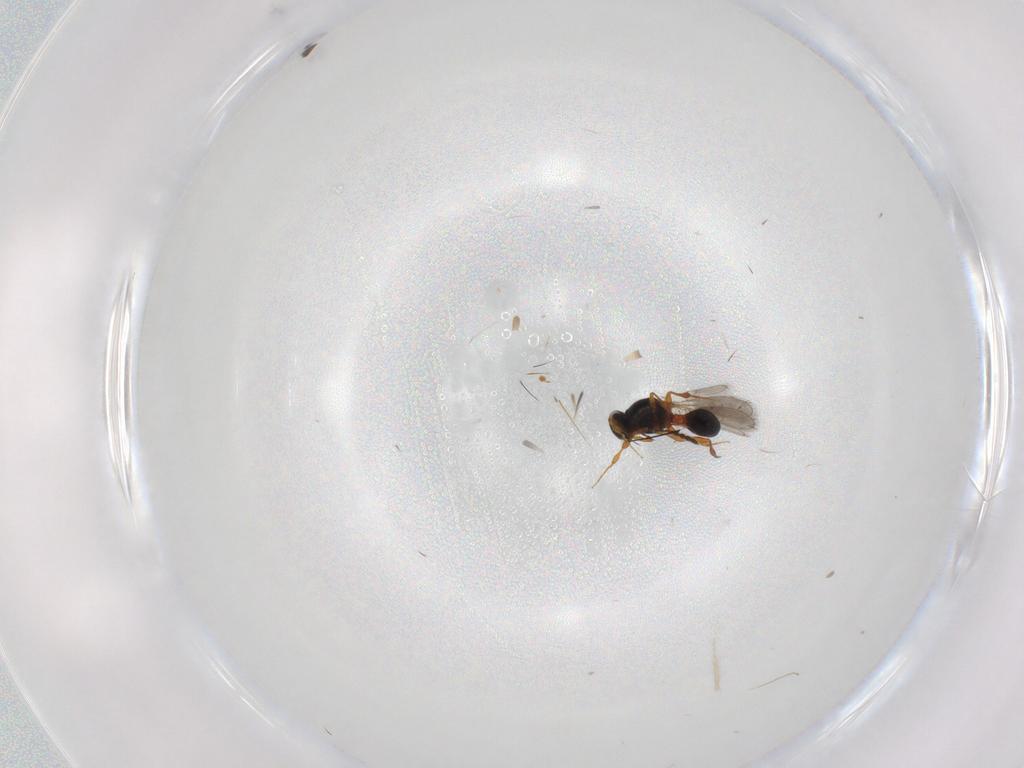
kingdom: Animalia
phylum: Arthropoda
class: Insecta
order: Hymenoptera
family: Platygastridae
